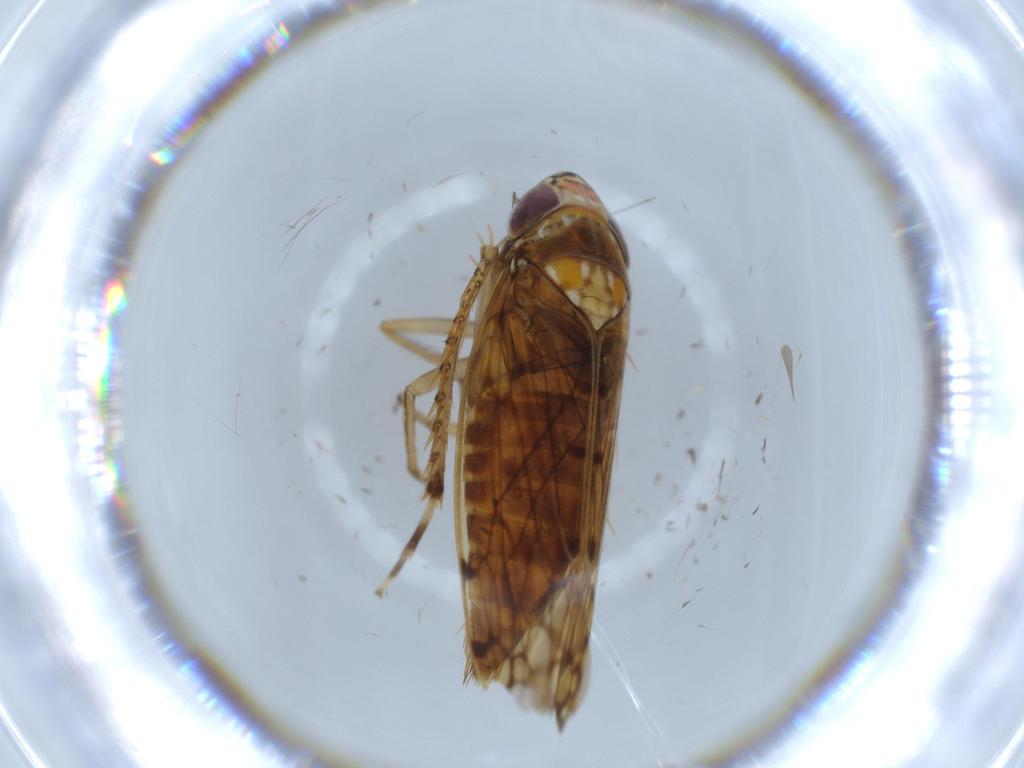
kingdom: Animalia
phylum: Arthropoda
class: Insecta
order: Hemiptera
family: Cicadellidae
